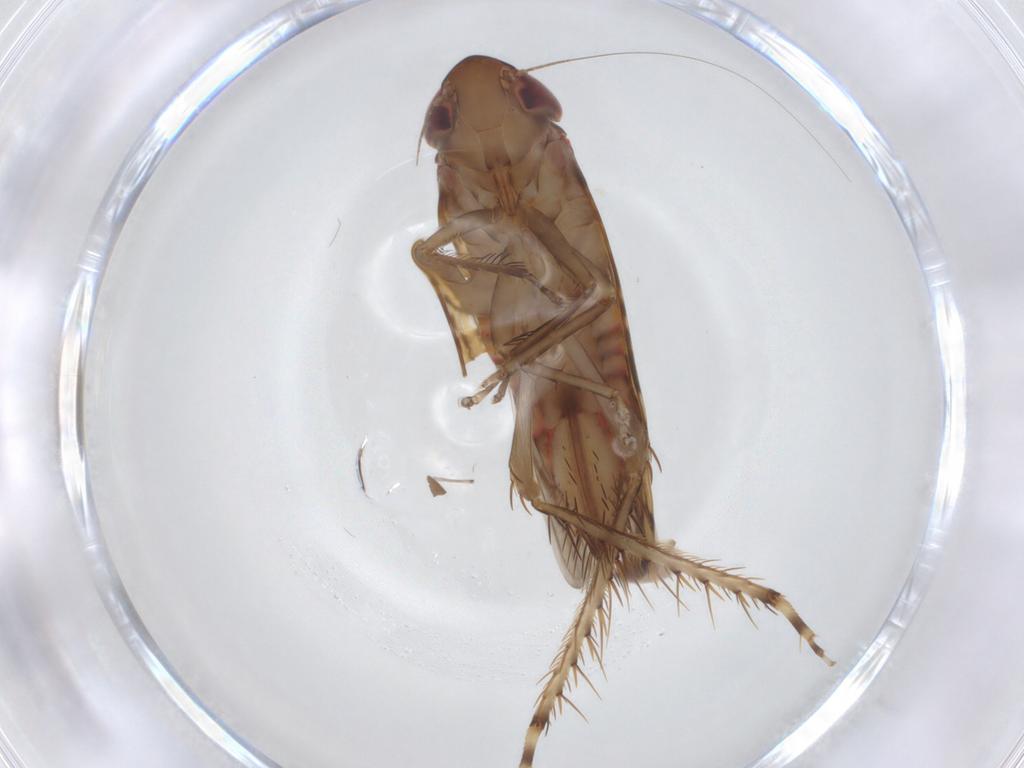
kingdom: Animalia
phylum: Arthropoda
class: Insecta
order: Hemiptera
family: Cicadellidae
